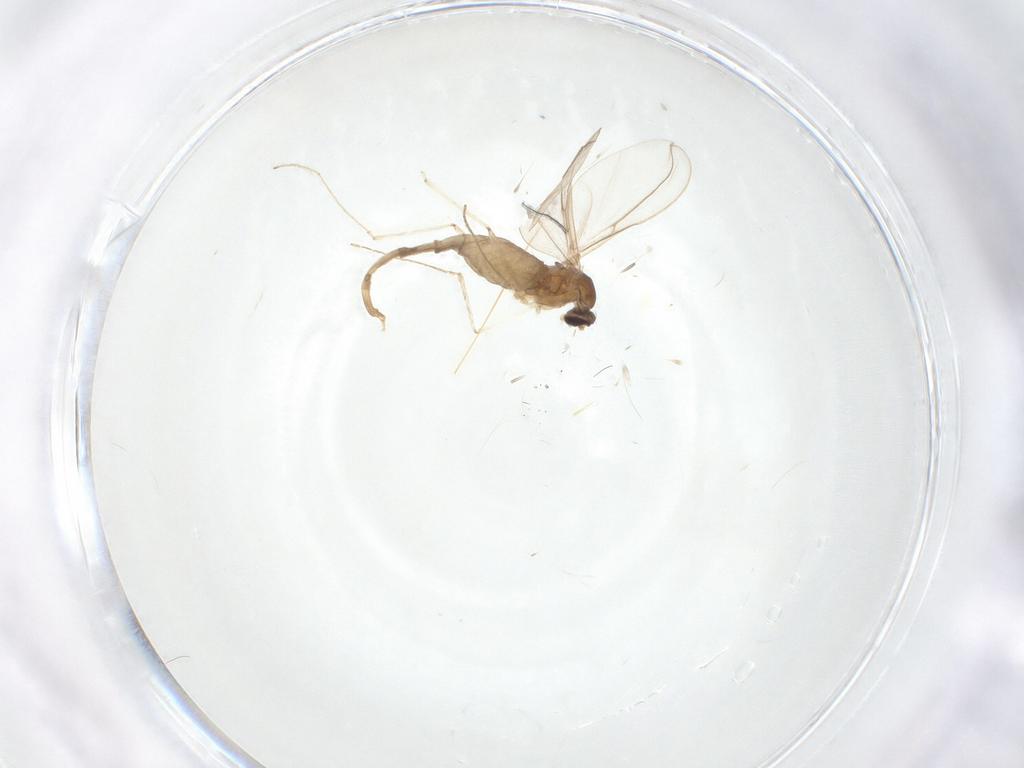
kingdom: Animalia
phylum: Arthropoda
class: Insecta
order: Diptera
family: Cecidomyiidae
